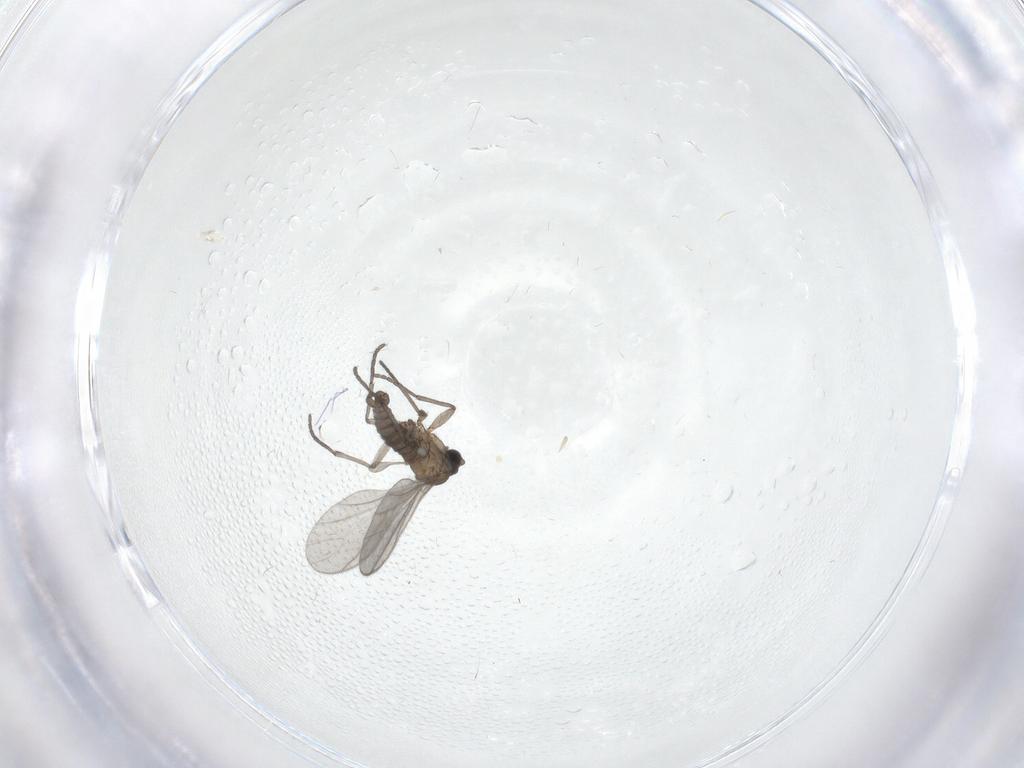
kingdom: Animalia
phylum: Arthropoda
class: Insecta
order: Diptera
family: Sciaridae
